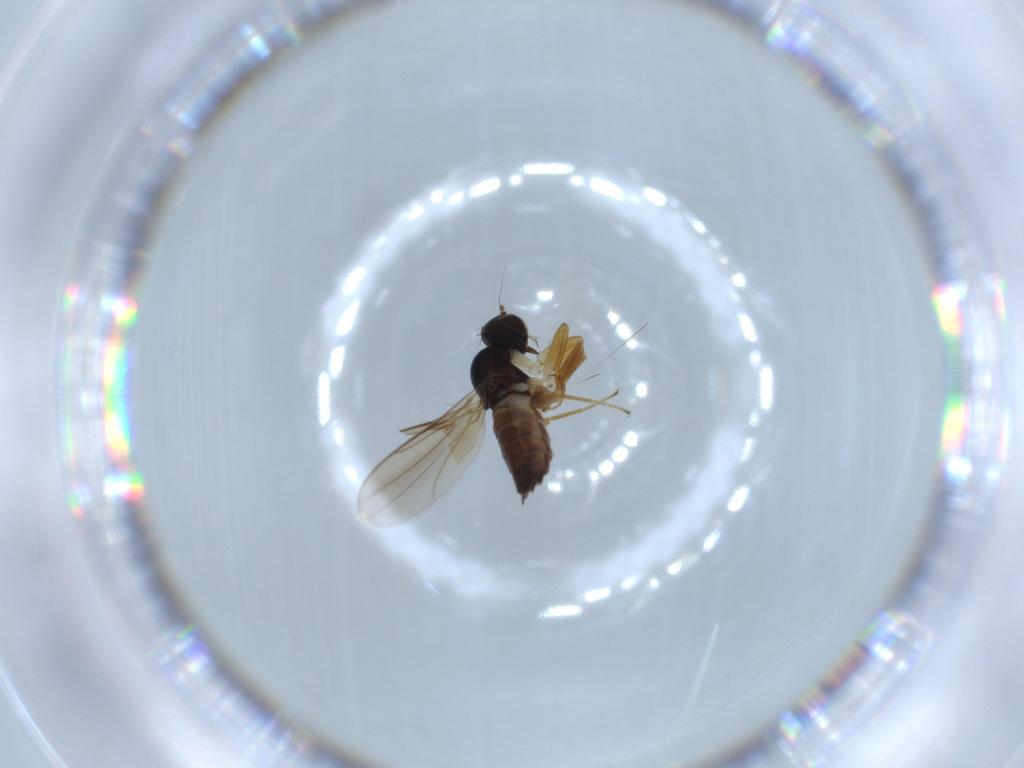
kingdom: Animalia
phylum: Arthropoda
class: Insecta
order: Diptera
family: Hybotidae
